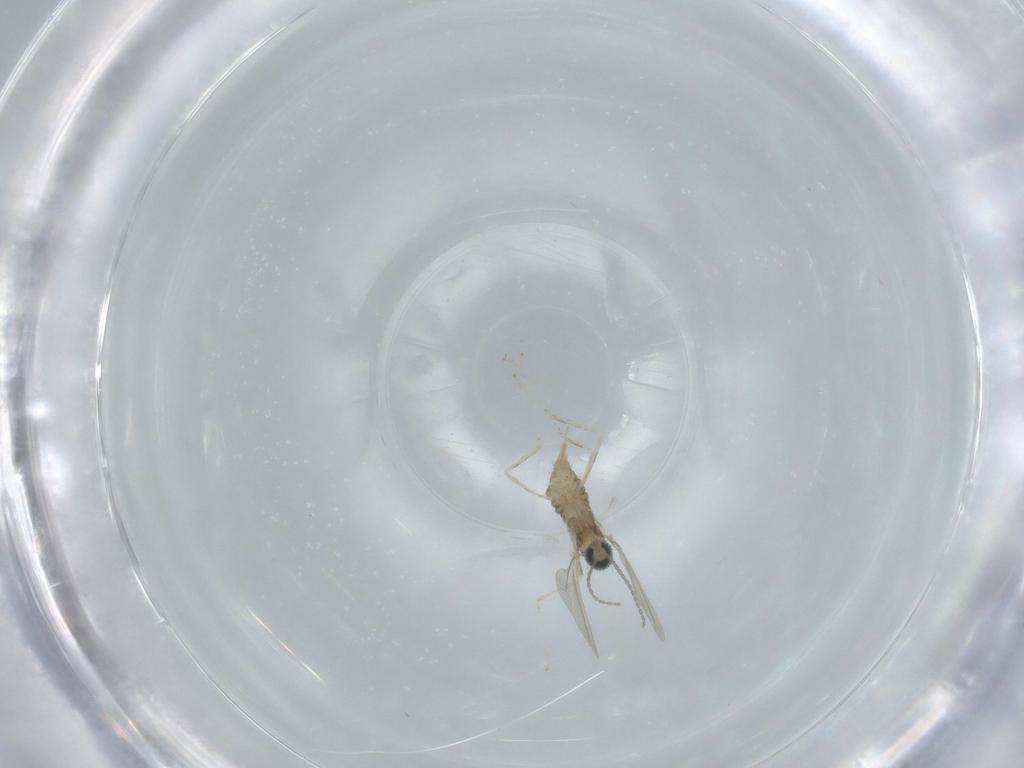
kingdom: Animalia
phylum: Arthropoda
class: Insecta
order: Diptera
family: Cecidomyiidae
